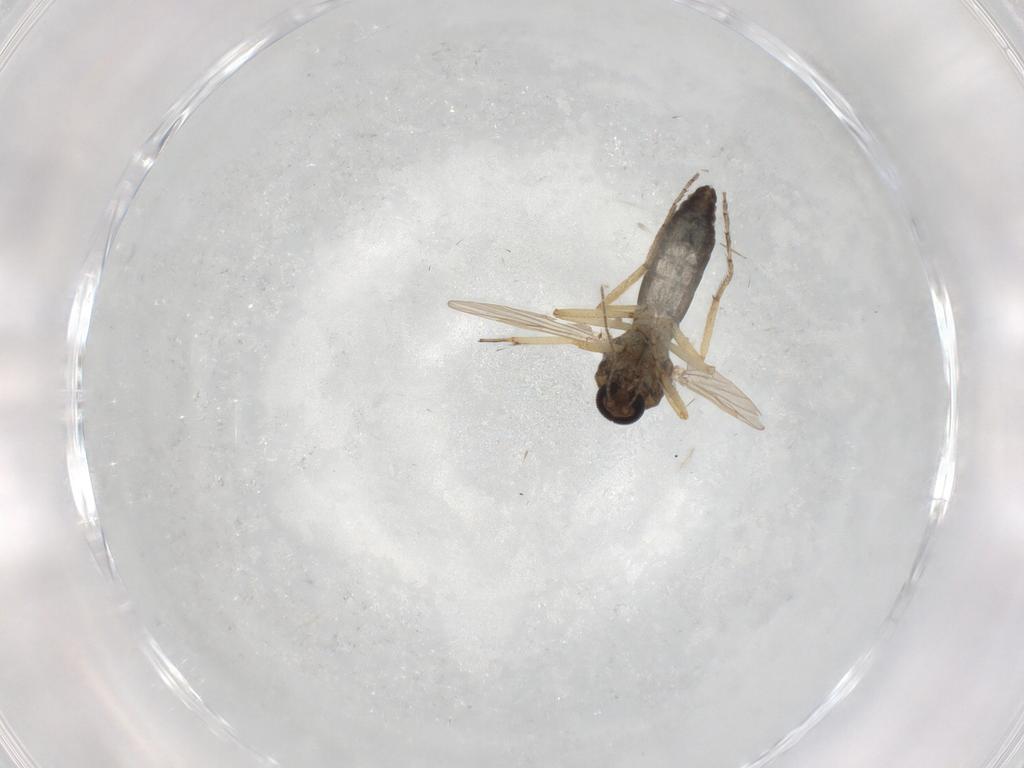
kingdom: Animalia
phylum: Arthropoda
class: Insecta
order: Diptera
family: Ceratopogonidae
